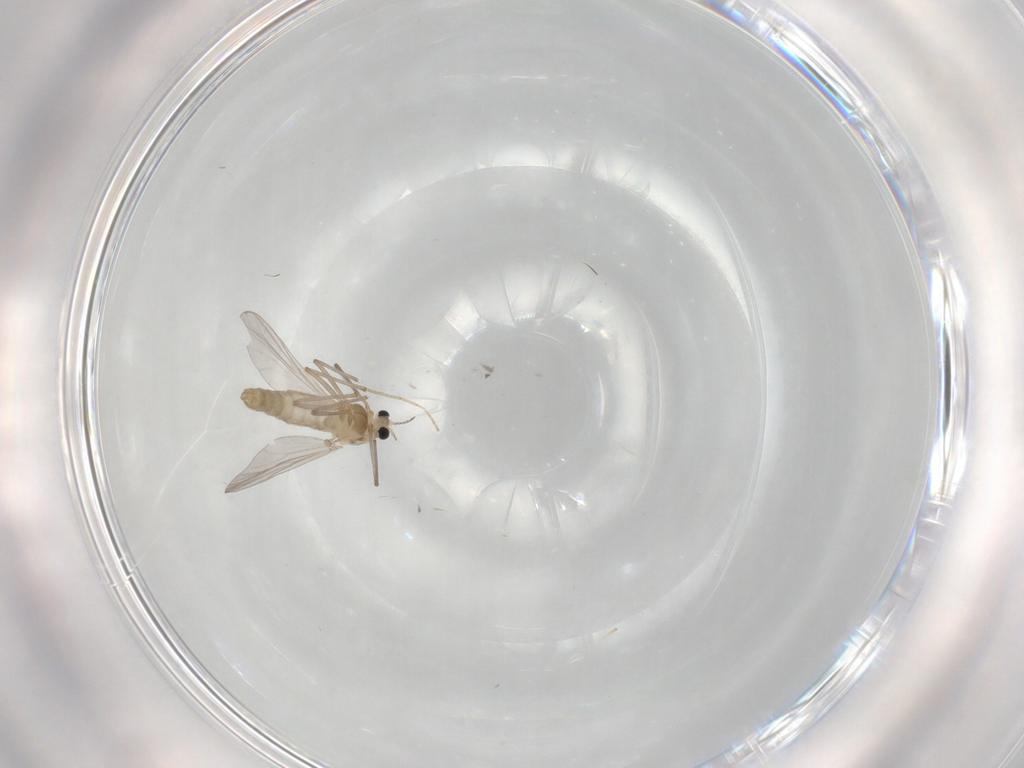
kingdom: Animalia
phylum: Arthropoda
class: Insecta
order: Diptera
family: Chironomidae
